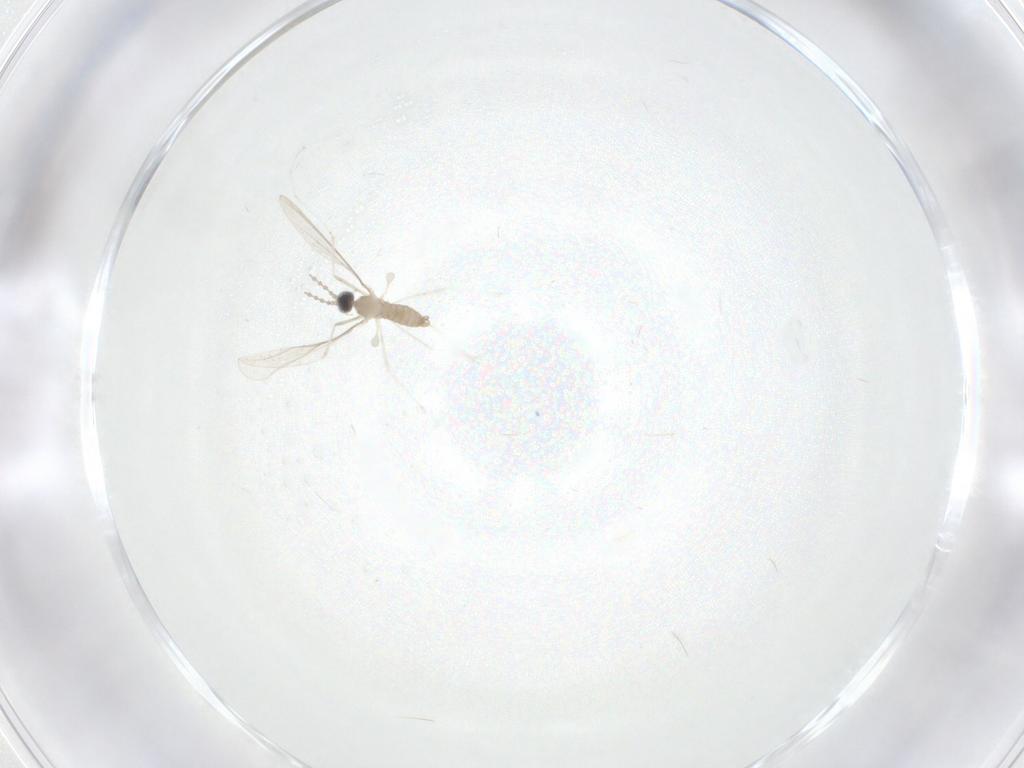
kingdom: Animalia
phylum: Arthropoda
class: Insecta
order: Diptera
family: Cecidomyiidae
